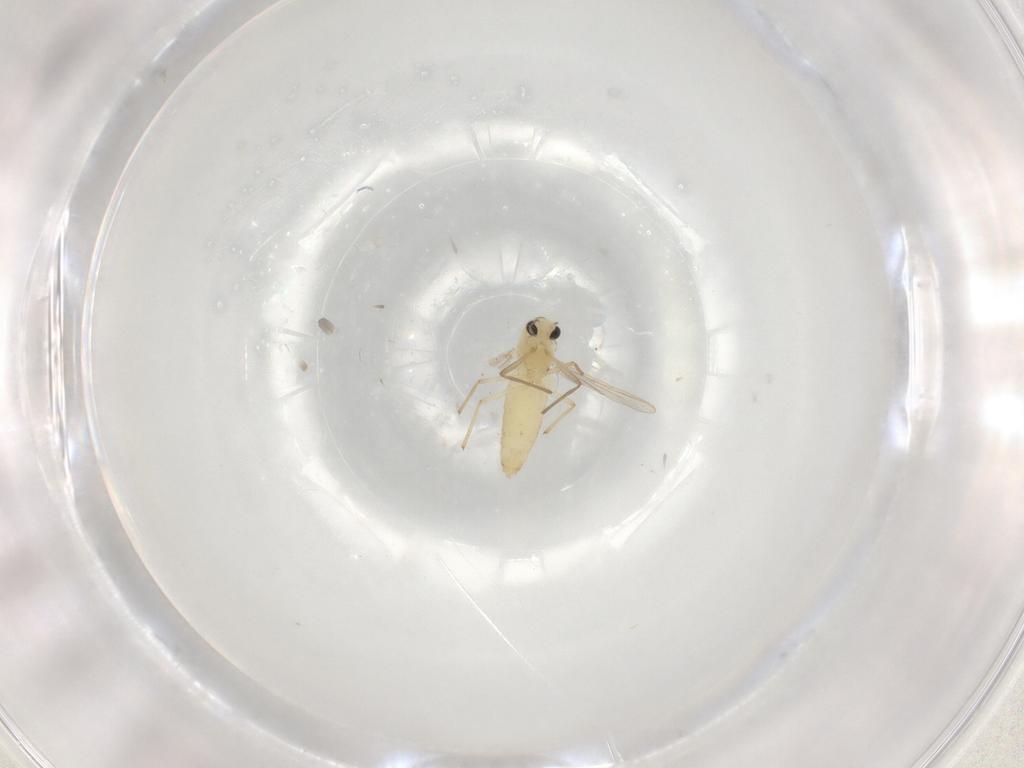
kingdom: Animalia
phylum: Arthropoda
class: Insecta
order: Diptera
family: Chironomidae
